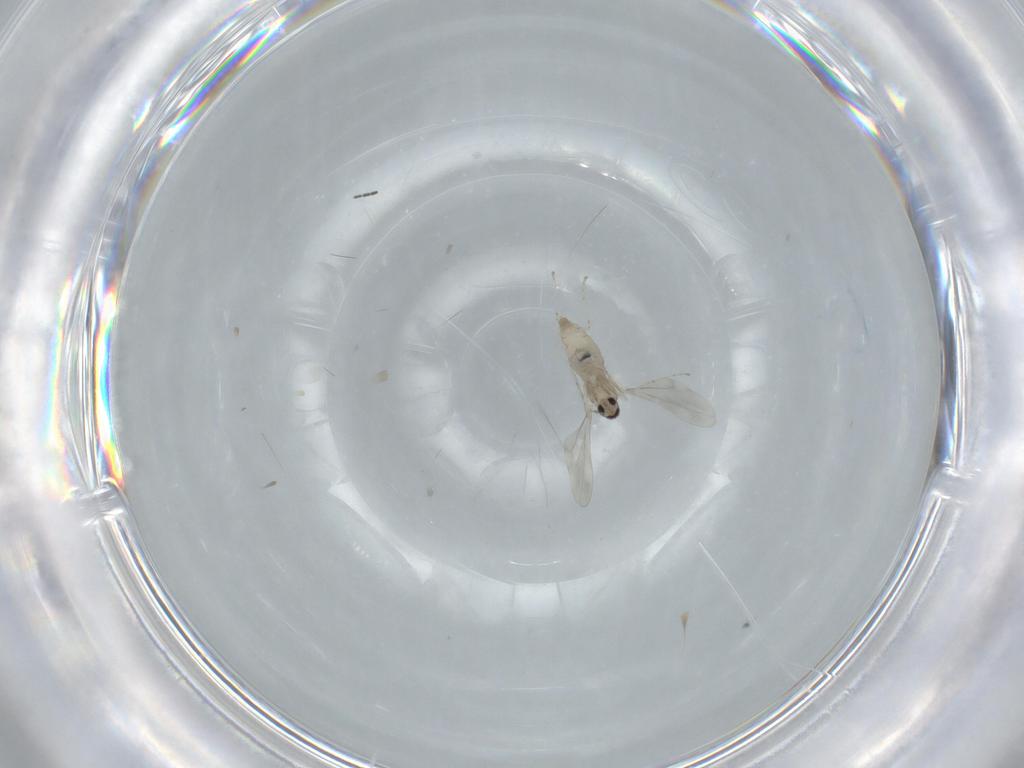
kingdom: Animalia
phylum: Arthropoda
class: Insecta
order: Diptera
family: Cecidomyiidae
